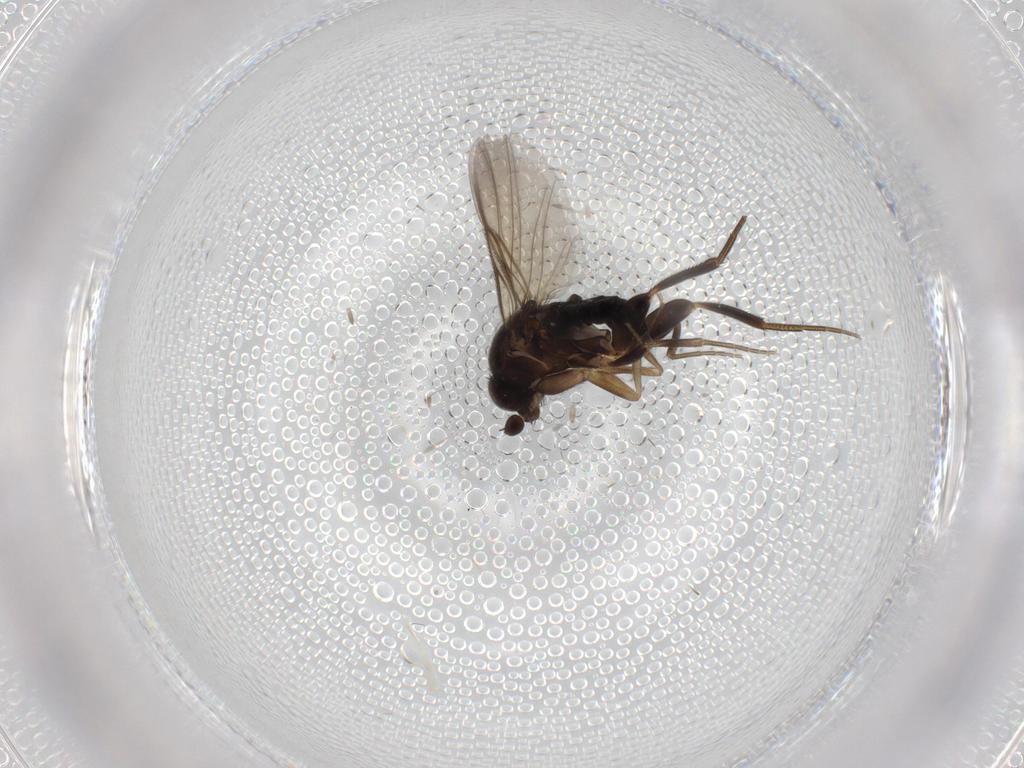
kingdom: Animalia
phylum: Arthropoda
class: Insecta
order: Diptera
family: Phoridae
